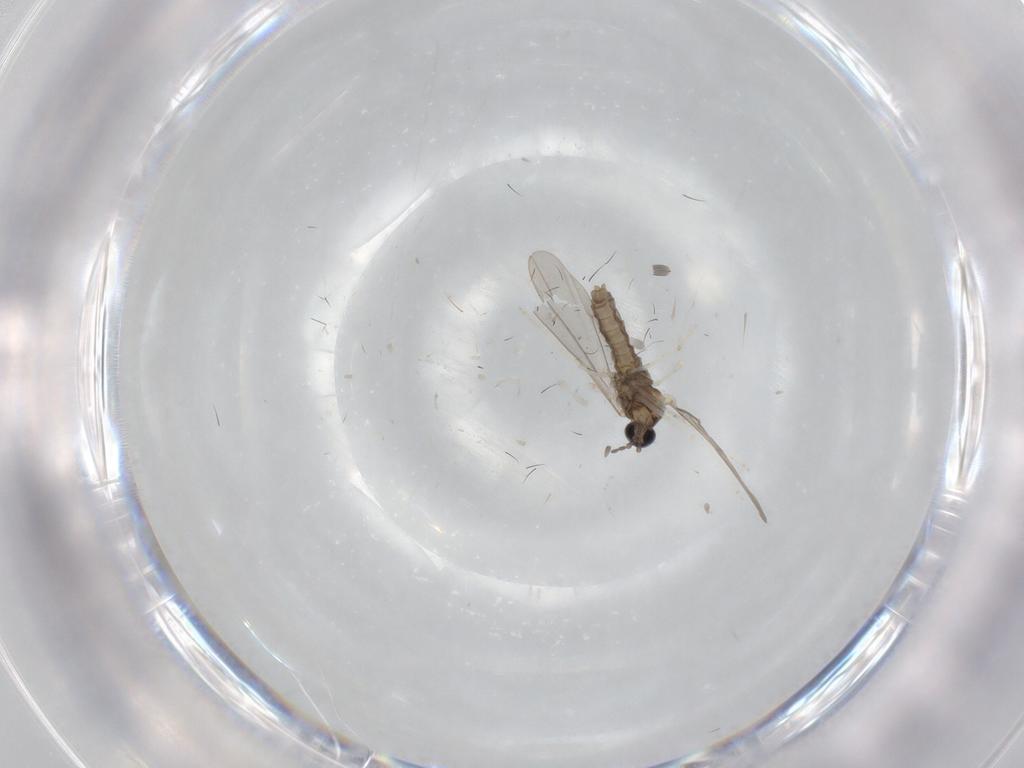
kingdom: Animalia
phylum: Arthropoda
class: Insecta
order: Diptera
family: Cecidomyiidae
